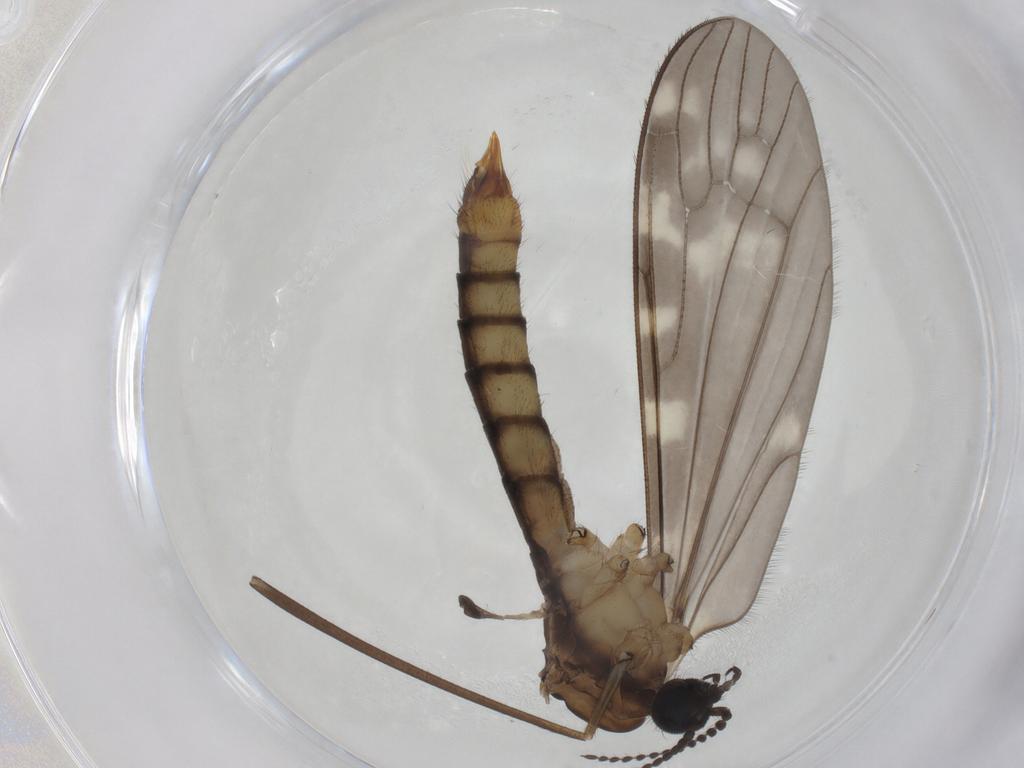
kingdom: Animalia
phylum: Arthropoda
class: Insecta
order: Diptera
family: Limoniidae
